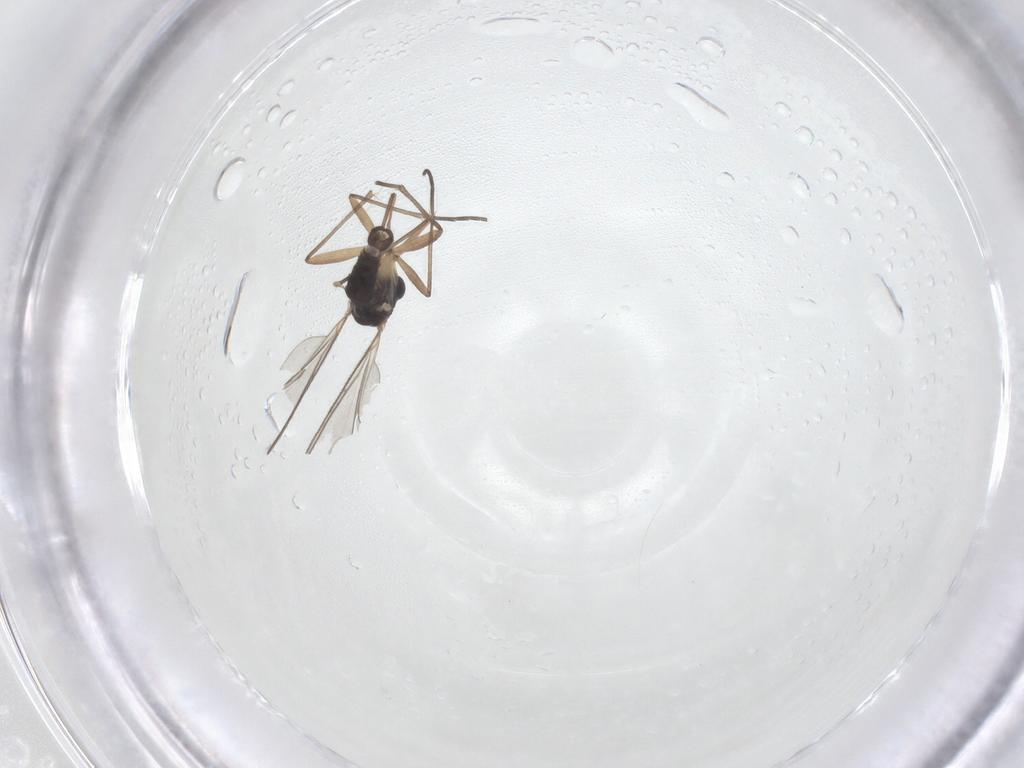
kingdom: Animalia
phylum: Arthropoda
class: Insecta
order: Diptera
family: Sciaridae
